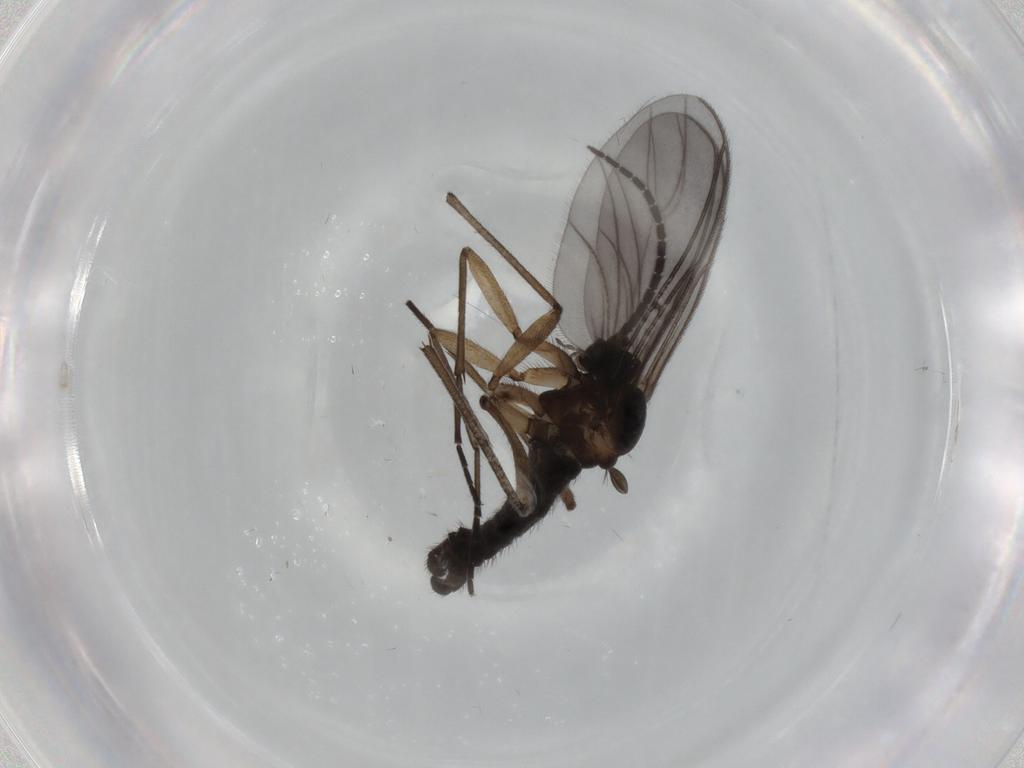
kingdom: Animalia
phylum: Arthropoda
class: Insecta
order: Diptera
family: Sciaridae
